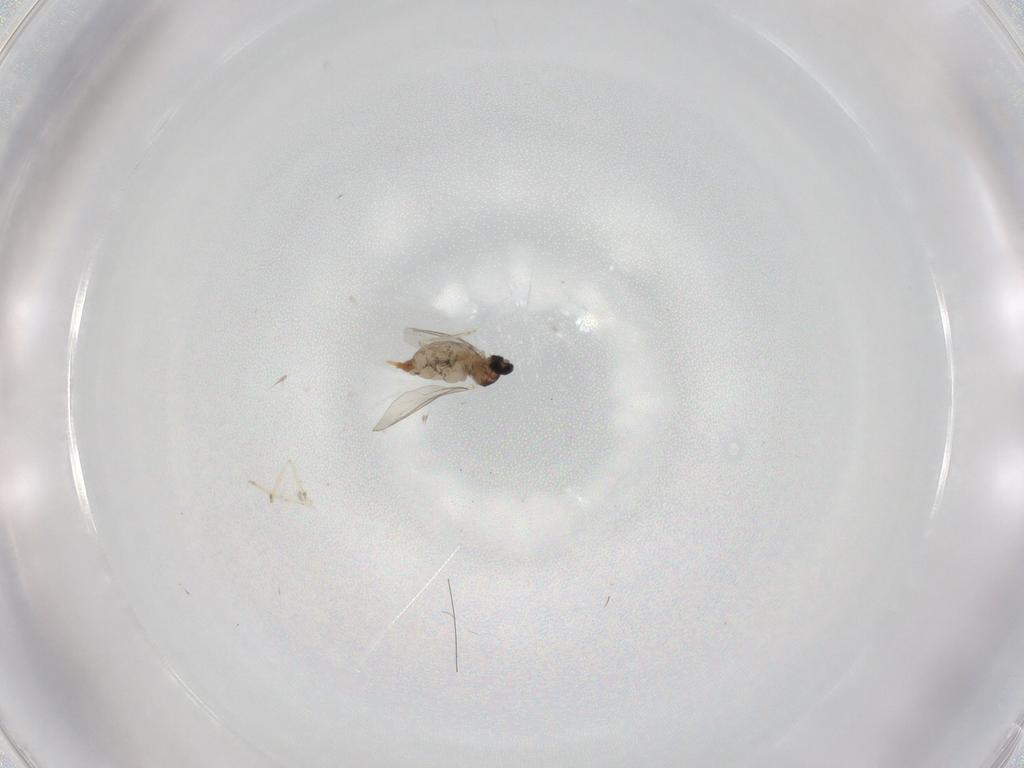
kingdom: Animalia
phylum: Arthropoda
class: Insecta
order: Diptera
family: Cecidomyiidae
